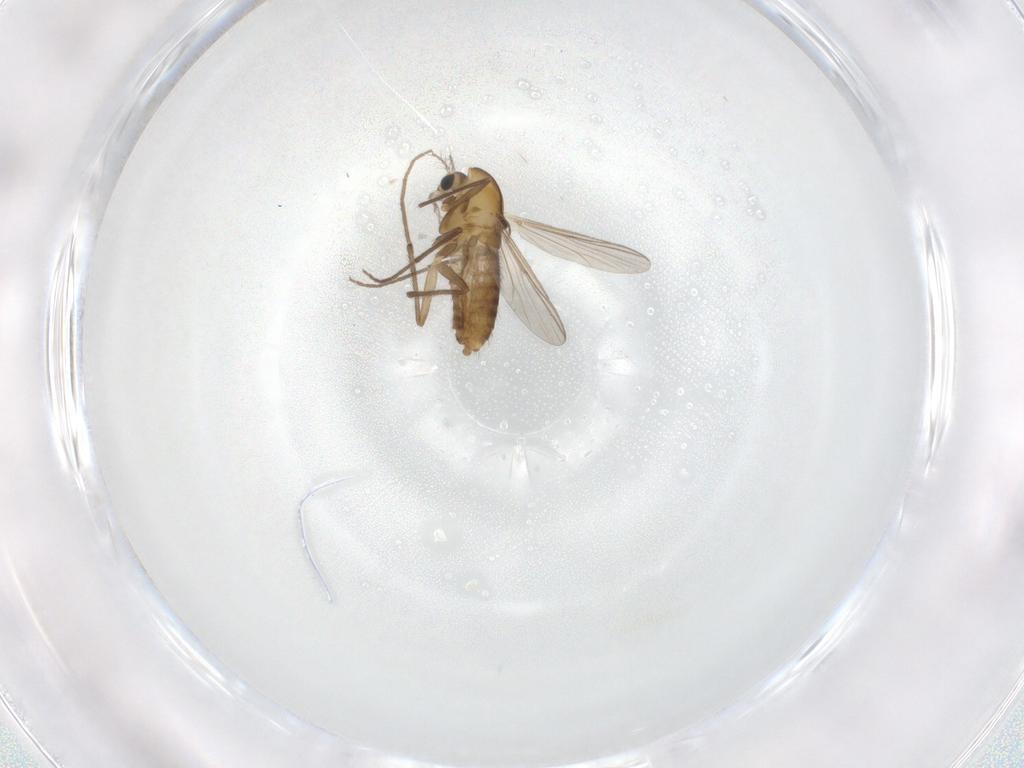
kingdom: Animalia
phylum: Arthropoda
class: Insecta
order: Diptera
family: Chironomidae
